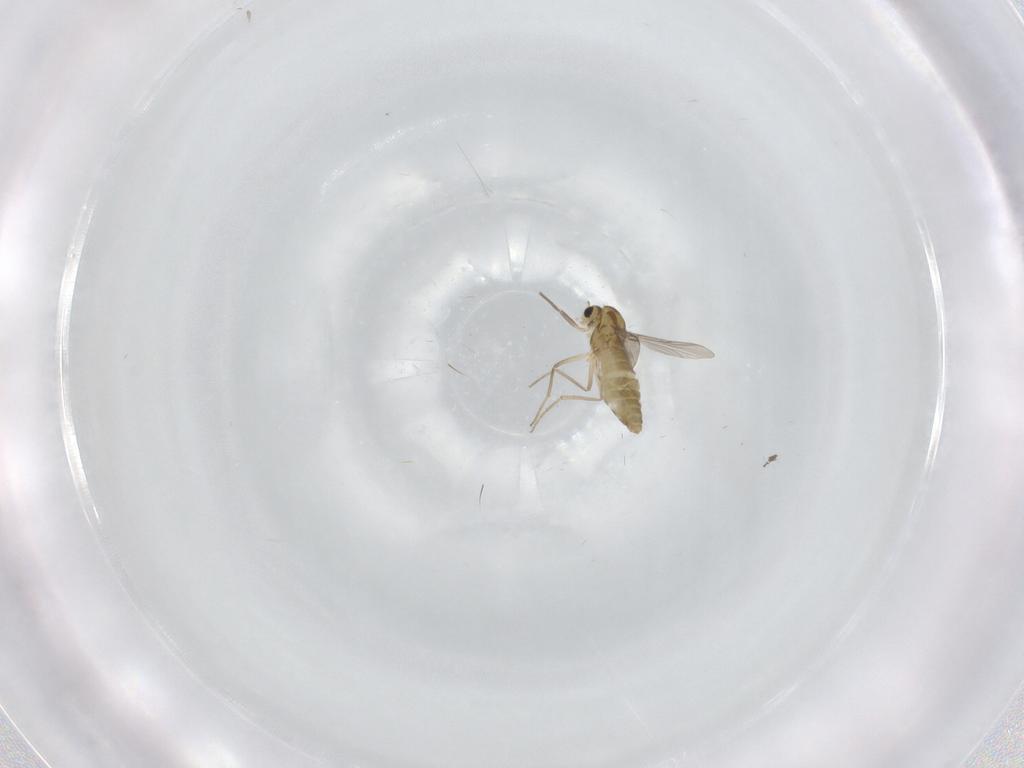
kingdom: Animalia
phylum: Arthropoda
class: Insecta
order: Diptera
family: Chironomidae
